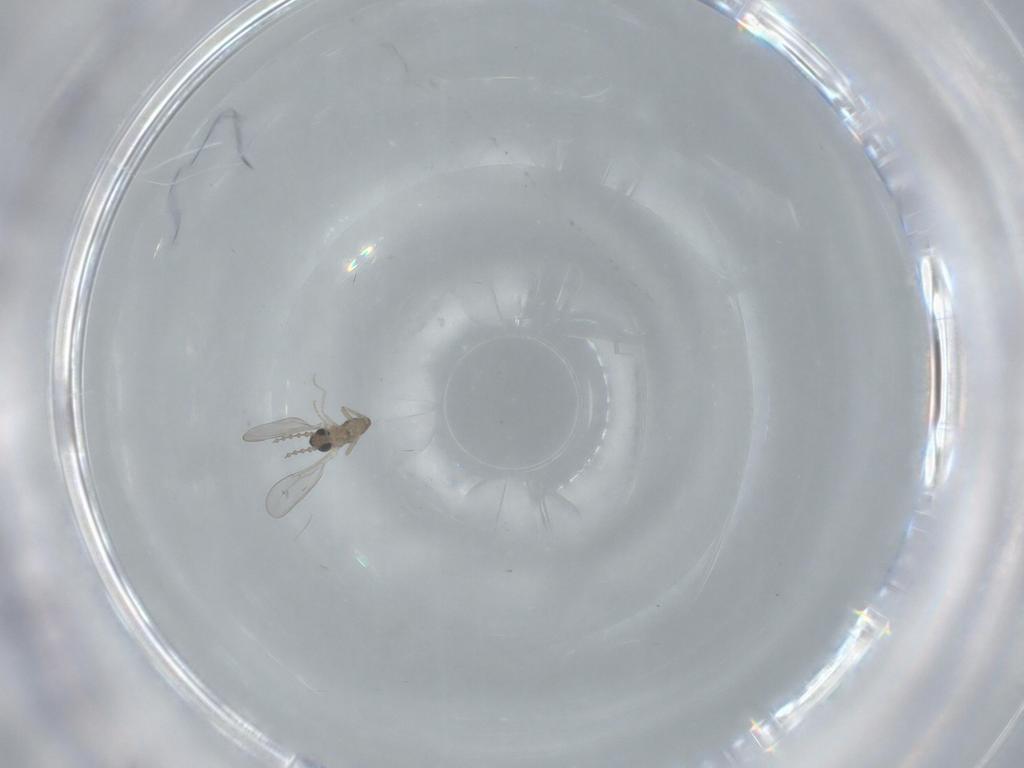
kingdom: Animalia
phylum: Arthropoda
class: Insecta
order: Diptera
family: Cecidomyiidae
